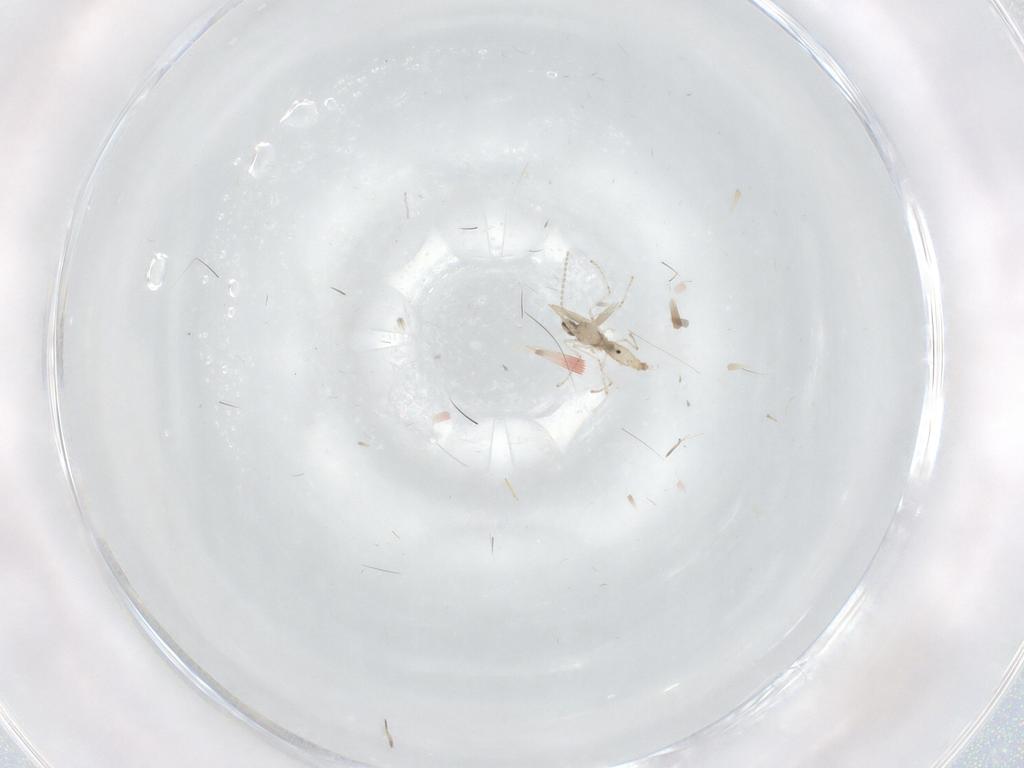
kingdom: Animalia
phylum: Arthropoda
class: Insecta
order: Diptera
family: Cecidomyiidae
